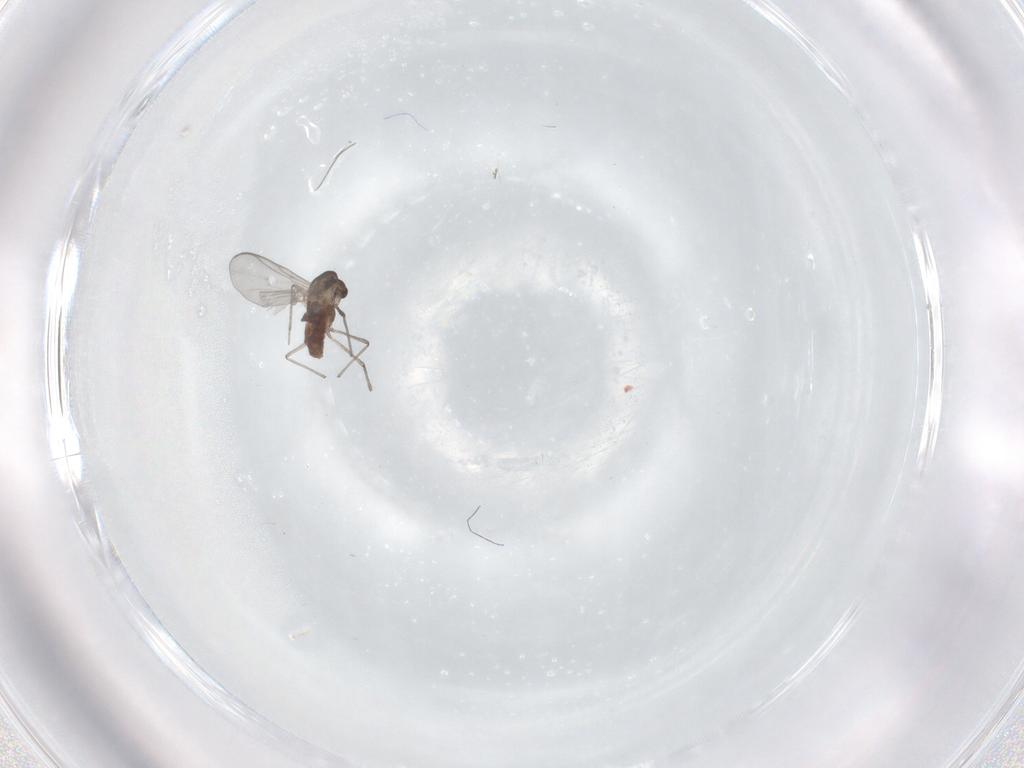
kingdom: Animalia
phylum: Arthropoda
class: Insecta
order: Diptera
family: Chironomidae
